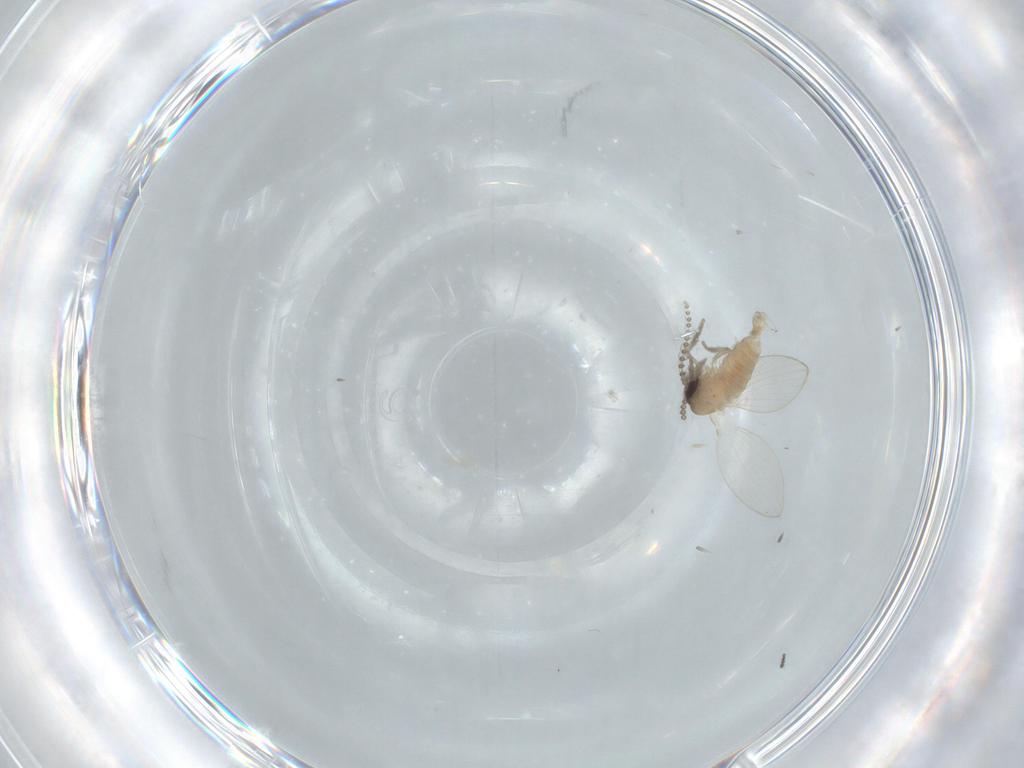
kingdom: Animalia
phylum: Arthropoda
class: Insecta
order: Diptera
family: Psychodidae
